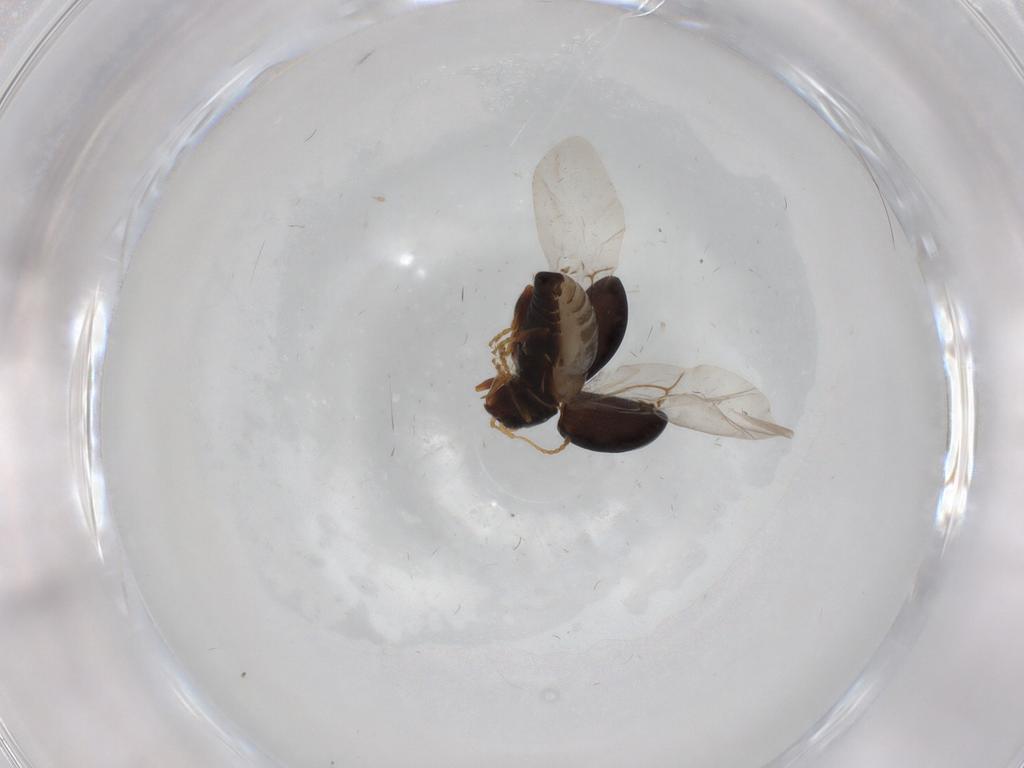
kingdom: Animalia
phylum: Arthropoda
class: Insecta
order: Coleoptera
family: Chrysomelidae
